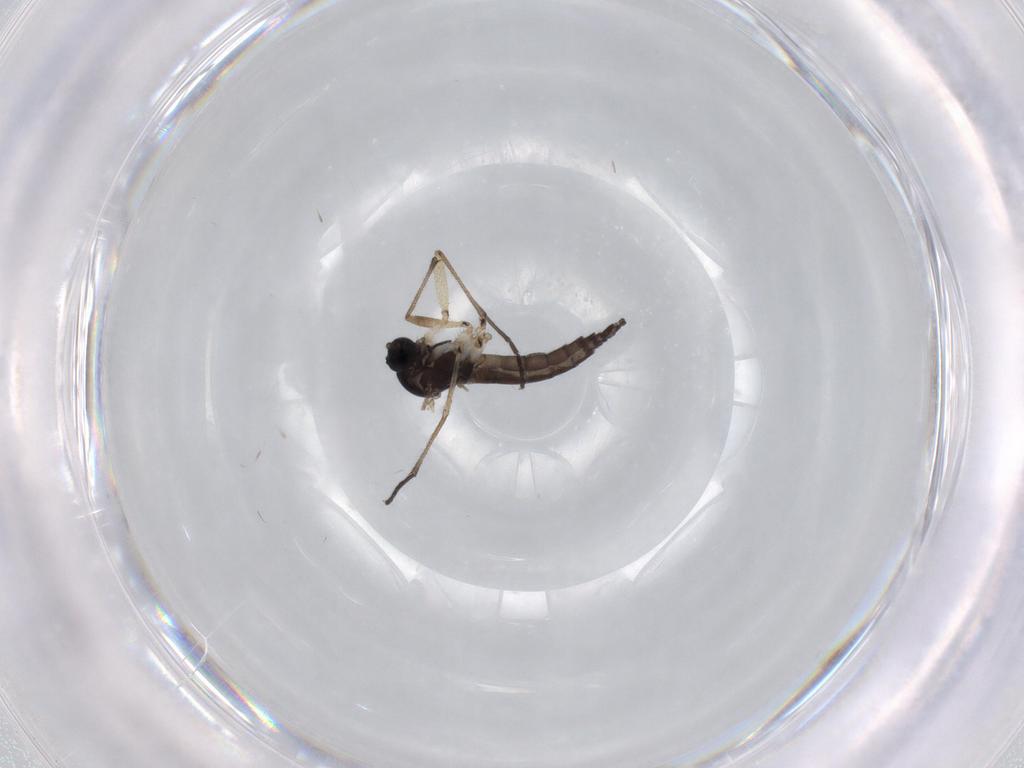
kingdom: Animalia
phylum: Arthropoda
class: Insecta
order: Diptera
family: Sciaridae
